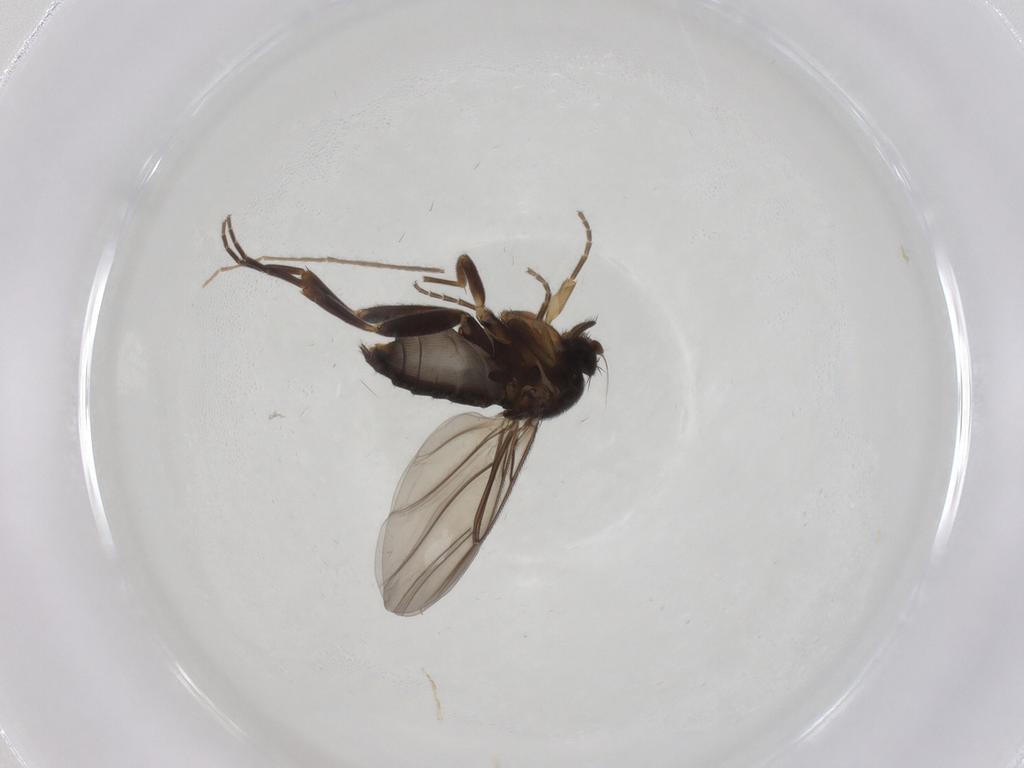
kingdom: Animalia
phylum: Arthropoda
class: Insecta
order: Diptera
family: Phoridae
